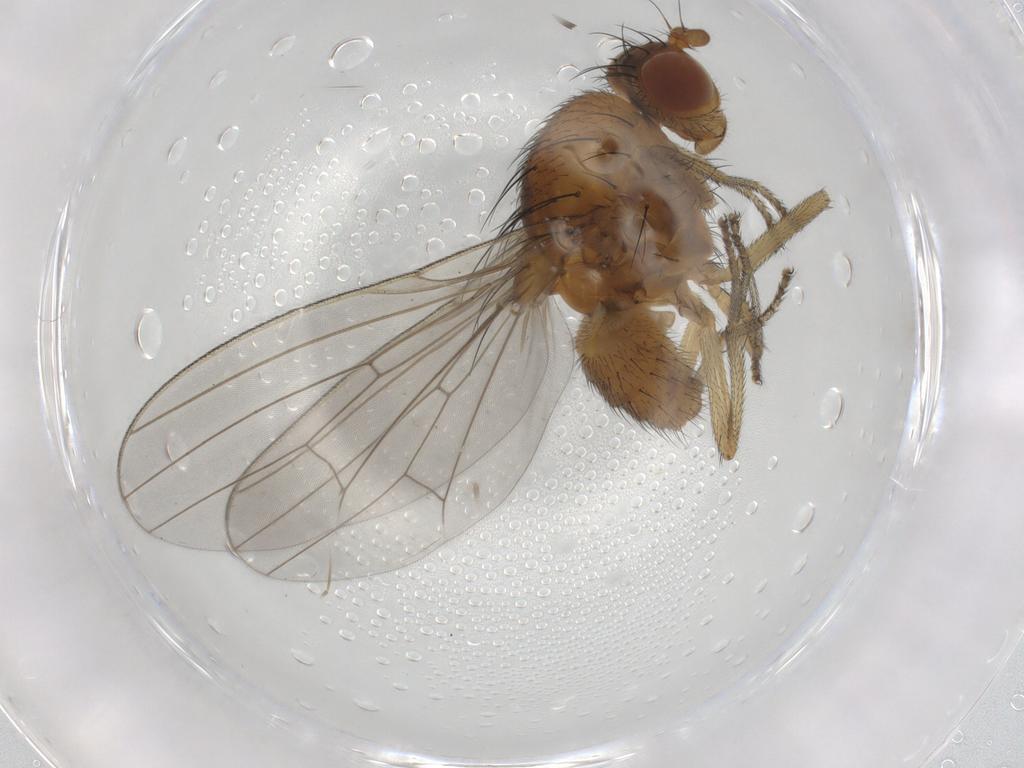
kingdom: Animalia
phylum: Arthropoda
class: Insecta
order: Diptera
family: Lauxaniidae
